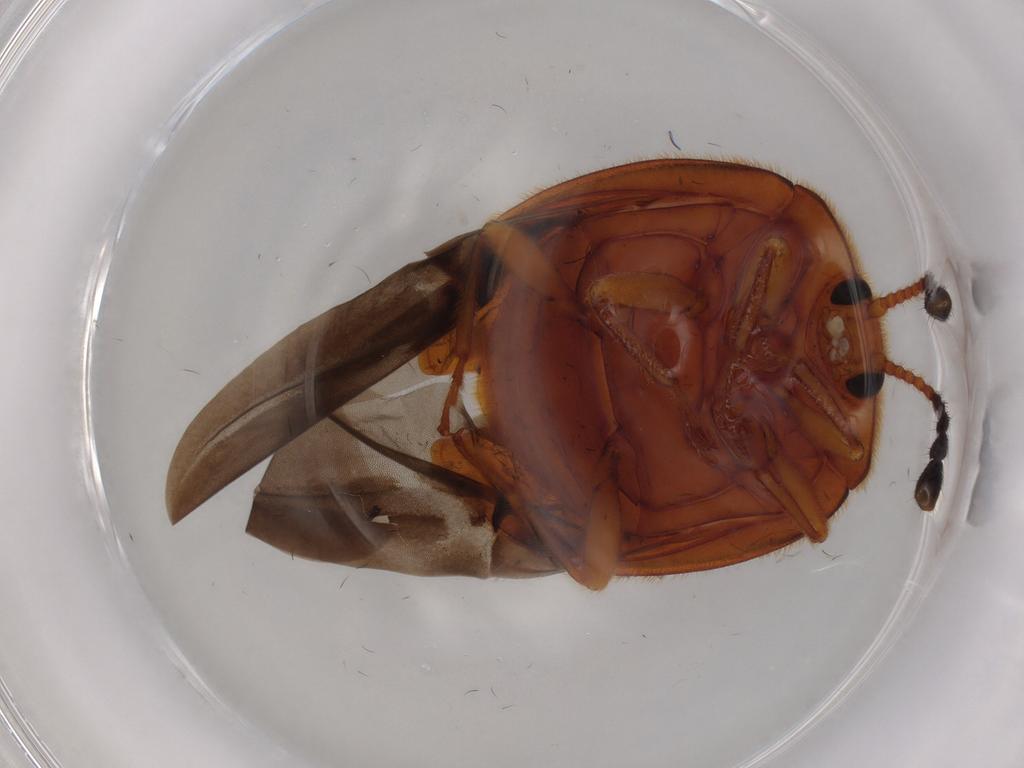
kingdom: Animalia
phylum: Arthropoda
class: Insecta
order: Coleoptera
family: Endomychidae
